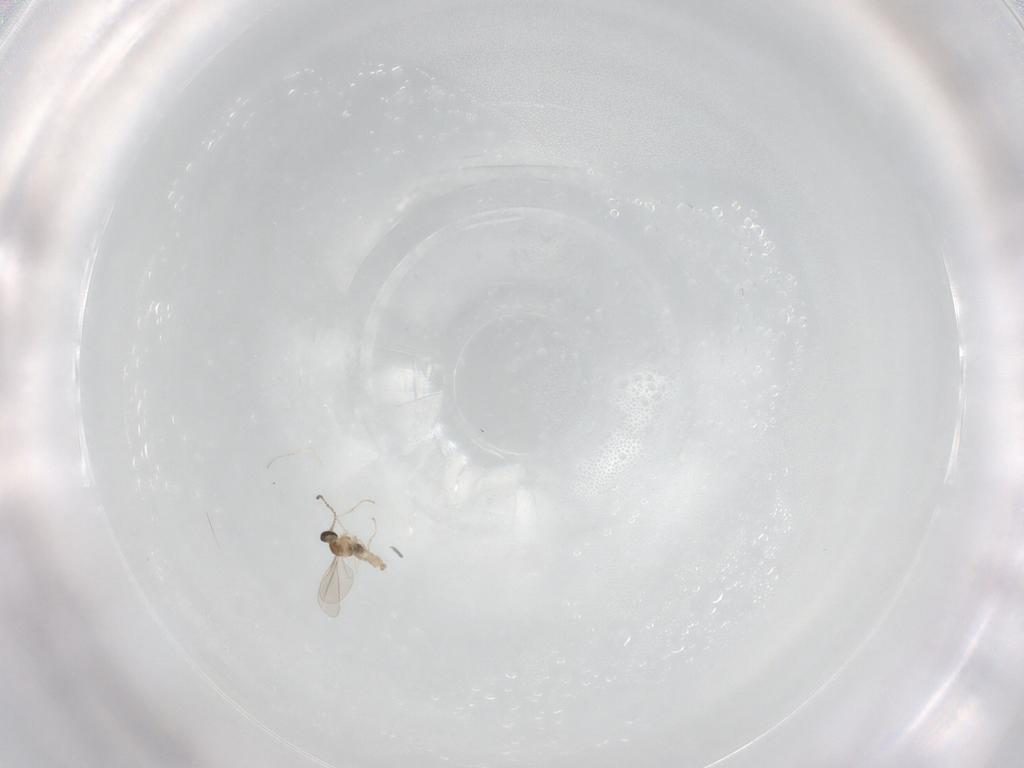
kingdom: Animalia
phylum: Arthropoda
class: Insecta
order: Diptera
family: Cecidomyiidae
